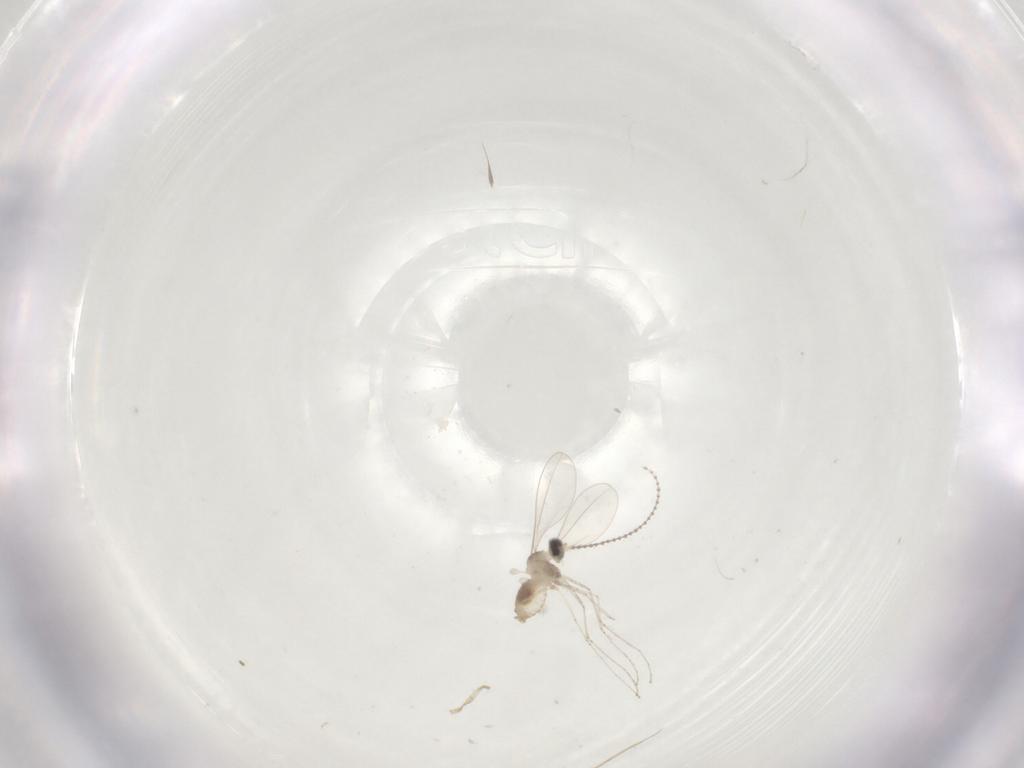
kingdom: Animalia
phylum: Arthropoda
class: Insecta
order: Diptera
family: Cecidomyiidae
